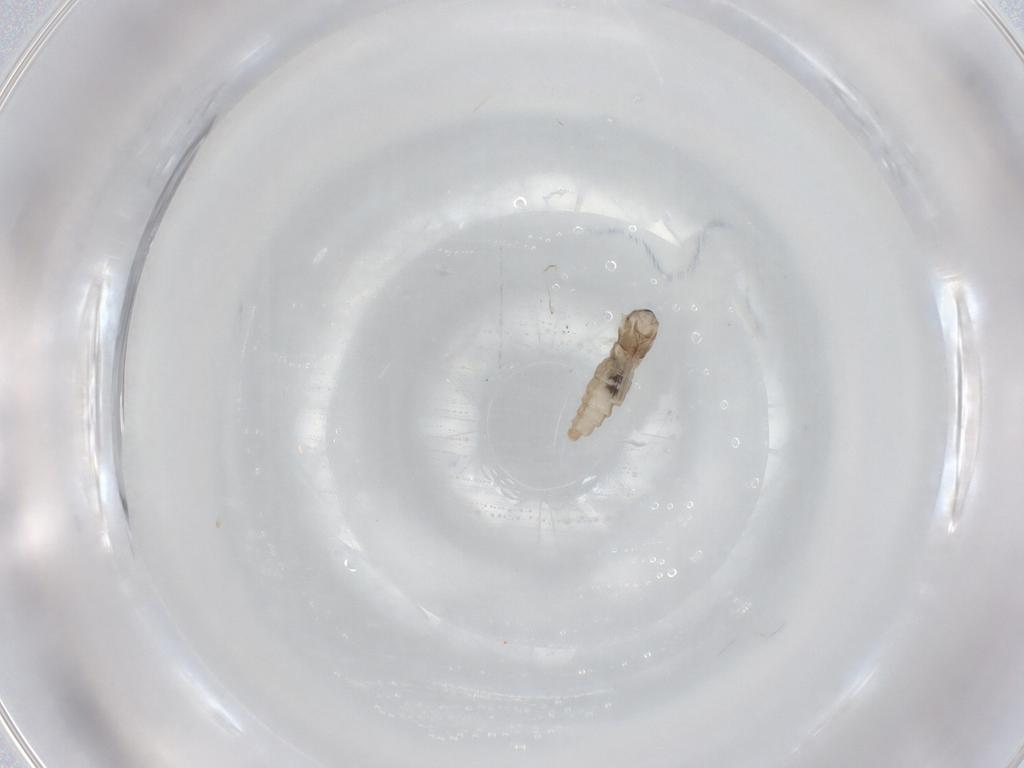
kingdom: Animalia
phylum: Arthropoda
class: Insecta
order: Diptera
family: Cecidomyiidae
